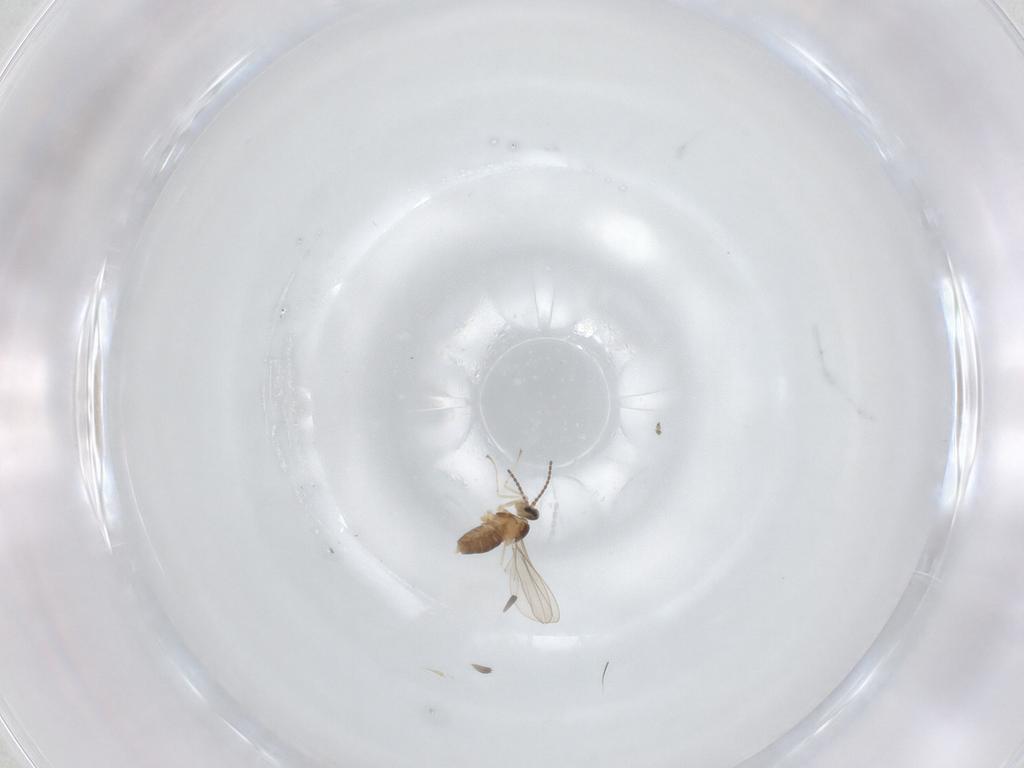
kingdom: Animalia
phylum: Arthropoda
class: Insecta
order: Diptera
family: Cecidomyiidae
